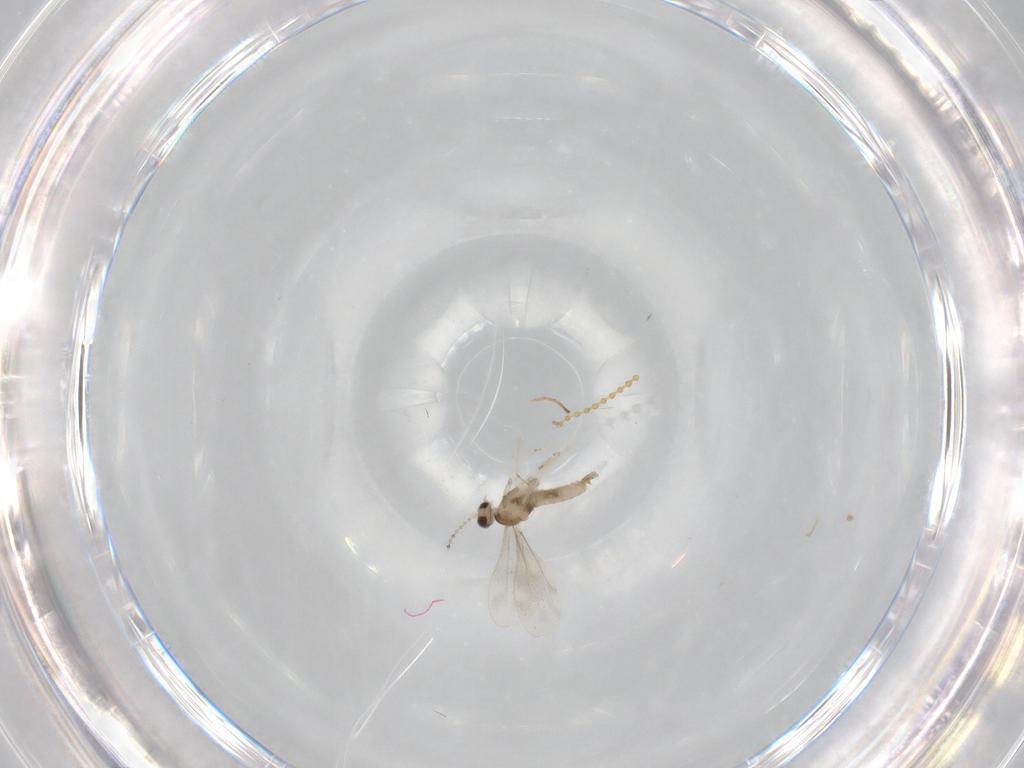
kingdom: Animalia
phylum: Arthropoda
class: Insecta
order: Diptera
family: Cecidomyiidae
